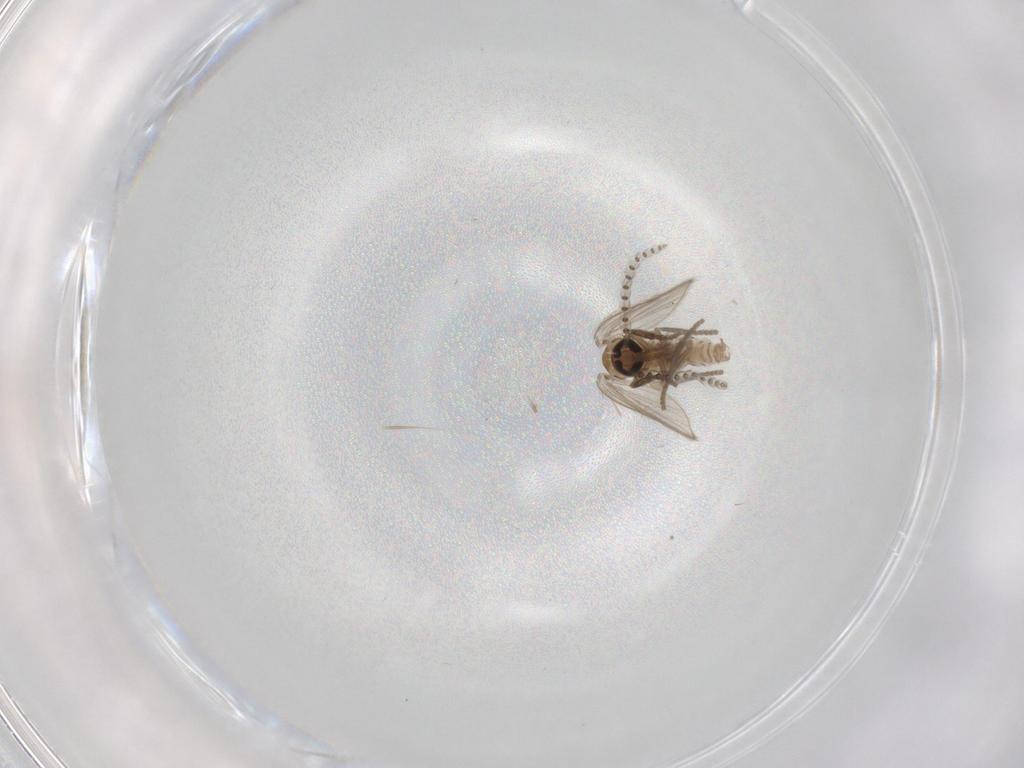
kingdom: Animalia
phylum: Arthropoda
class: Insecta
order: Diptera
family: Psychodidae
